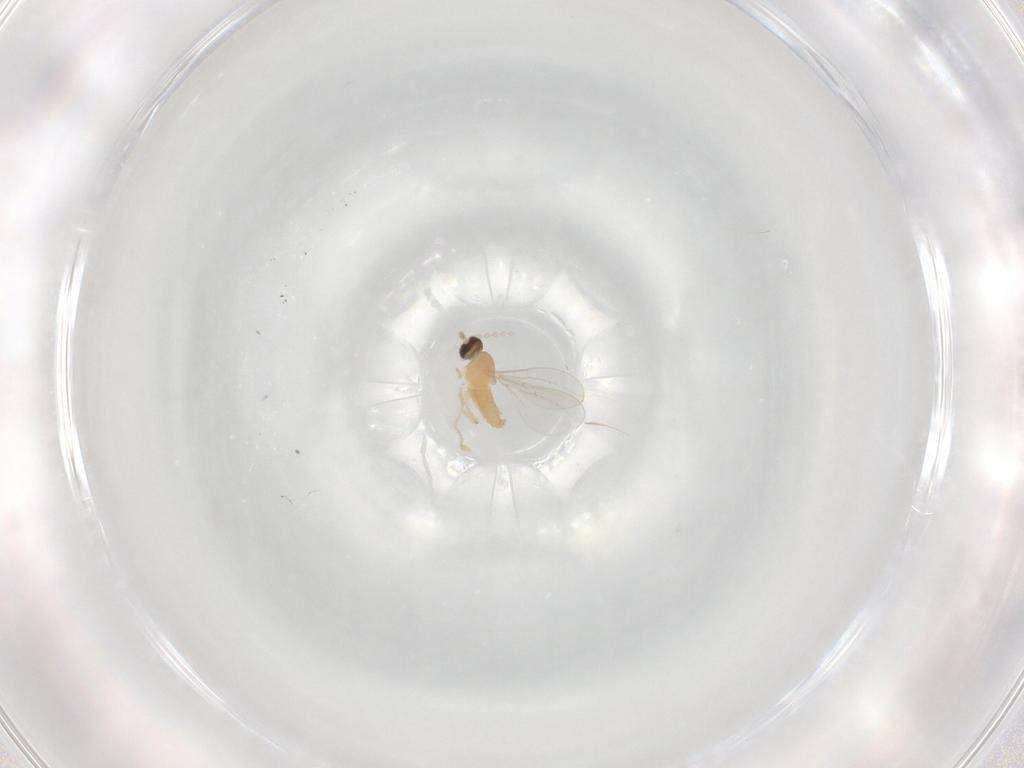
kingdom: Animalia
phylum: Arthropoda
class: Insecta
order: Diptera
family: Cecidomyiidae
